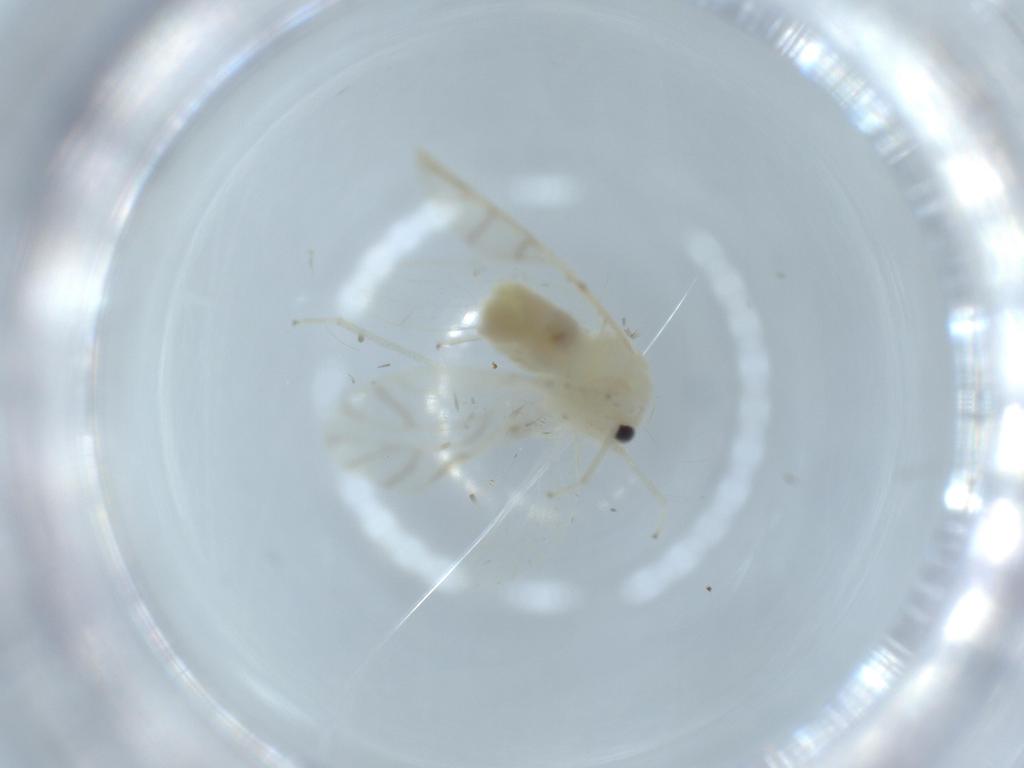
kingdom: Animalia
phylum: Arthropoda
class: Insecta
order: Psocodea
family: Caeciliusidae
